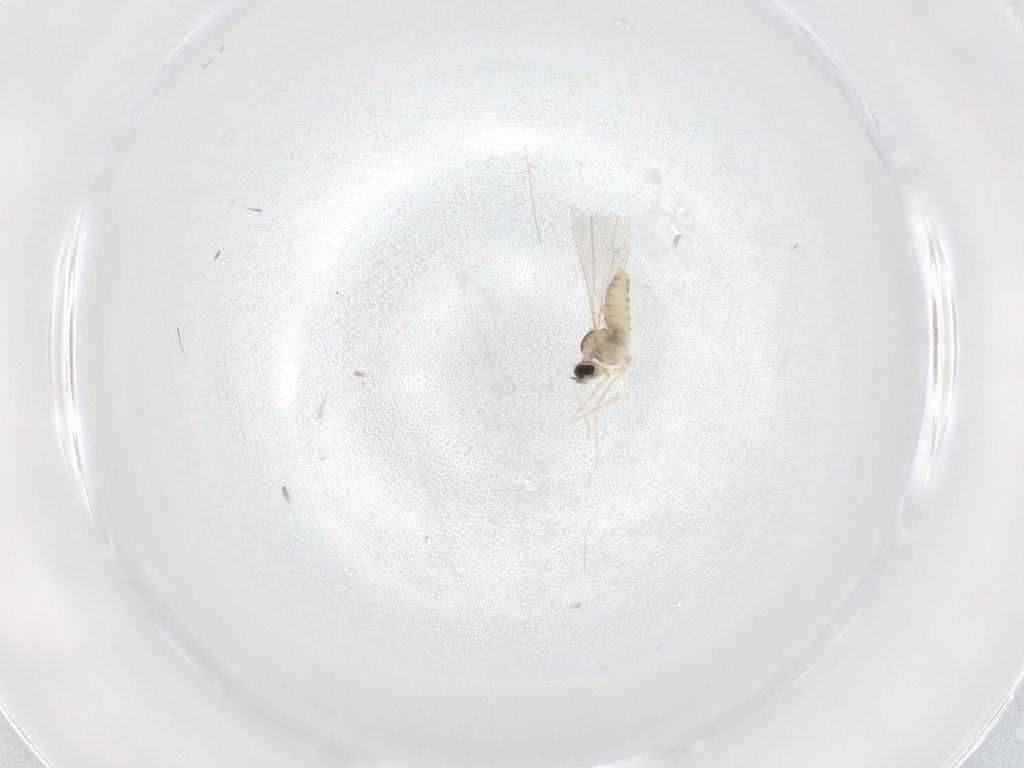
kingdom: Animalia
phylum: Arthropoda
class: Insecta
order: Diptera
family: Cecidomyiidae
